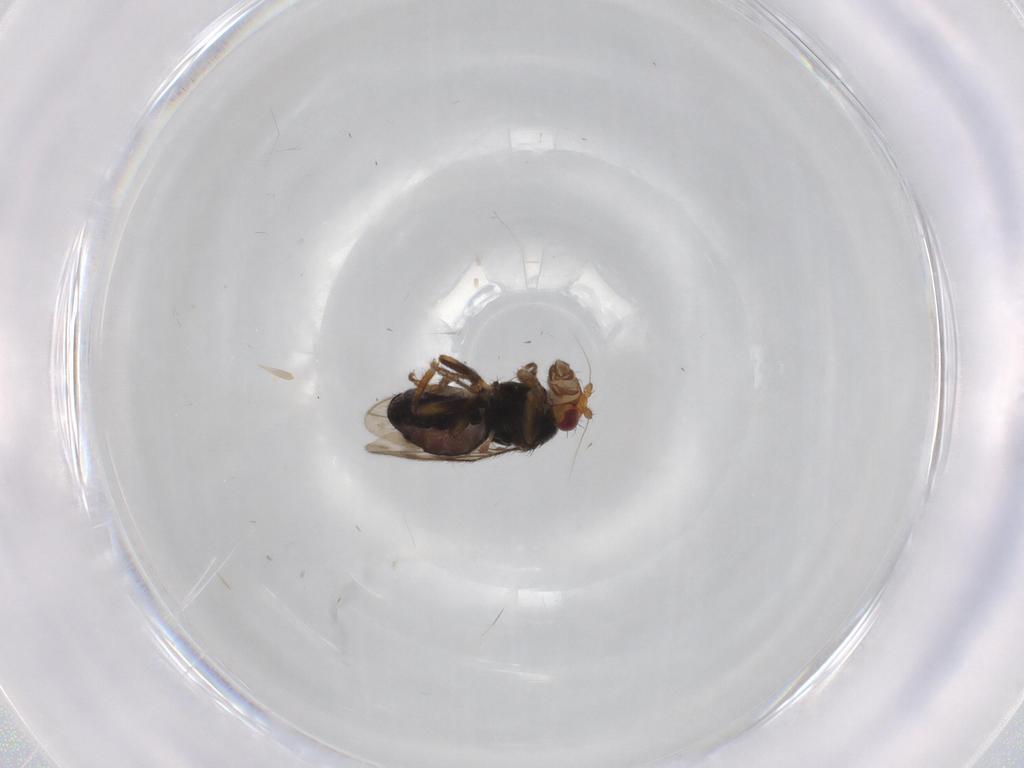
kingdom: Animalia
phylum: Arthropoda
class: Insecta
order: Diptera
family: Sphaeroceridae
